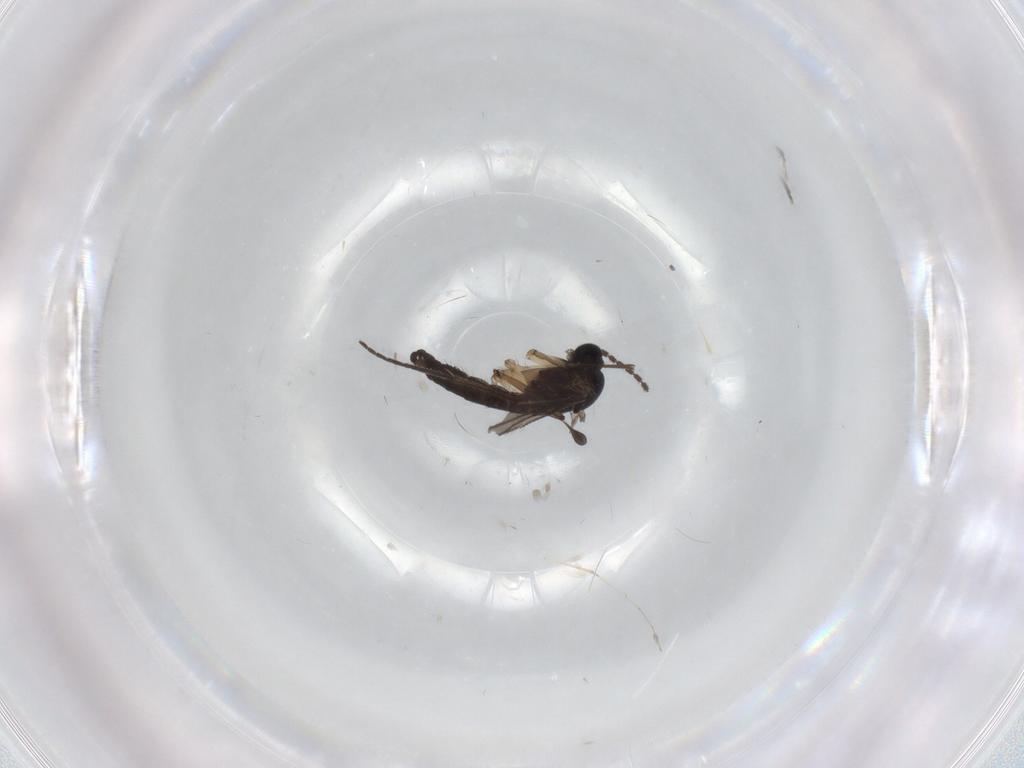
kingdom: Animalia
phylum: Arthropoda
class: Insecta
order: Diptera
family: Sciaridae
